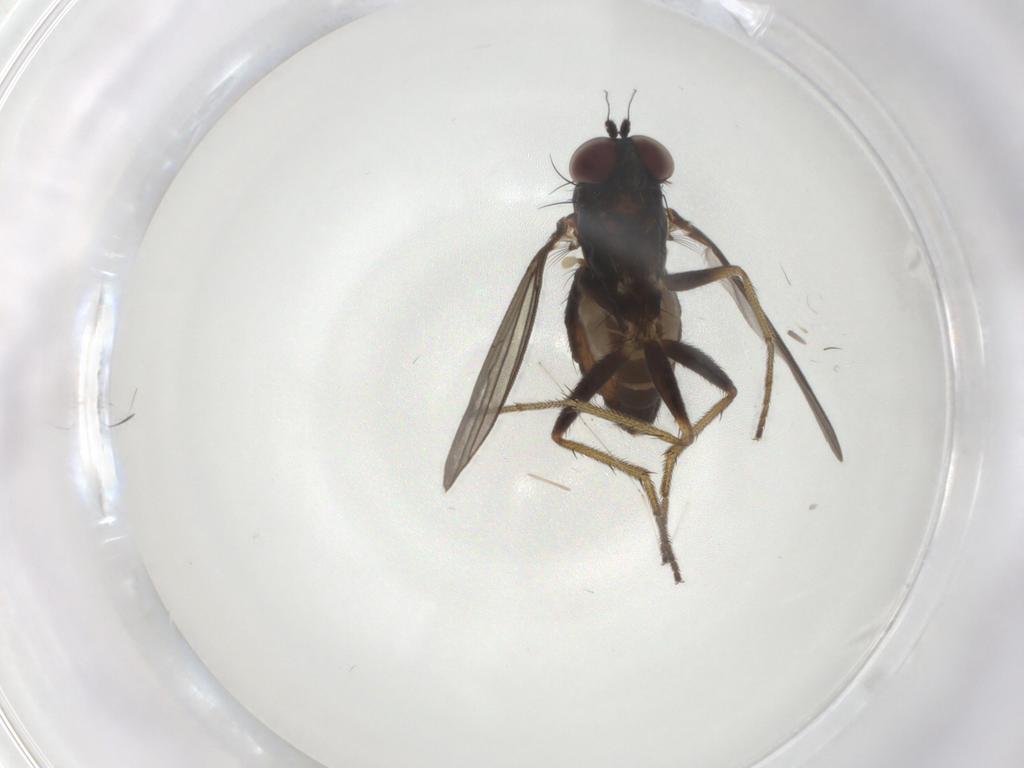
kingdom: Animalia
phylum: Arthropoda
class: Insecta
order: Diptera
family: Dolichopodidae
